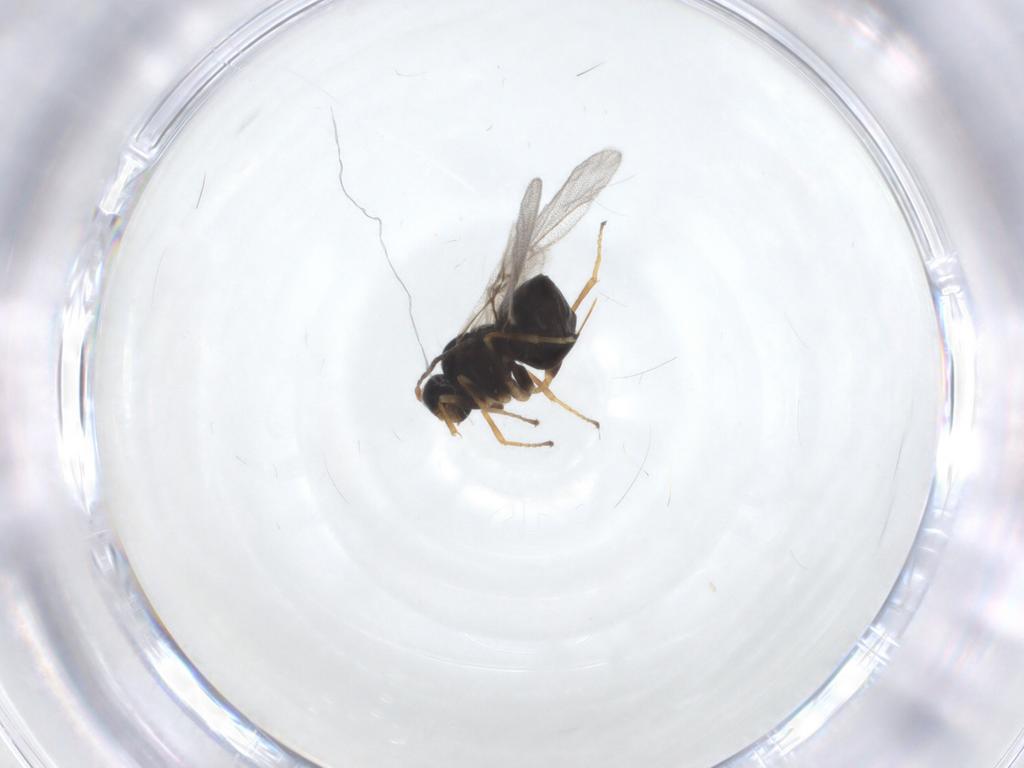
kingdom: Animalia
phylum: Arthropoda
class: Insecta
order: Hymenoptera
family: Cynipidae
